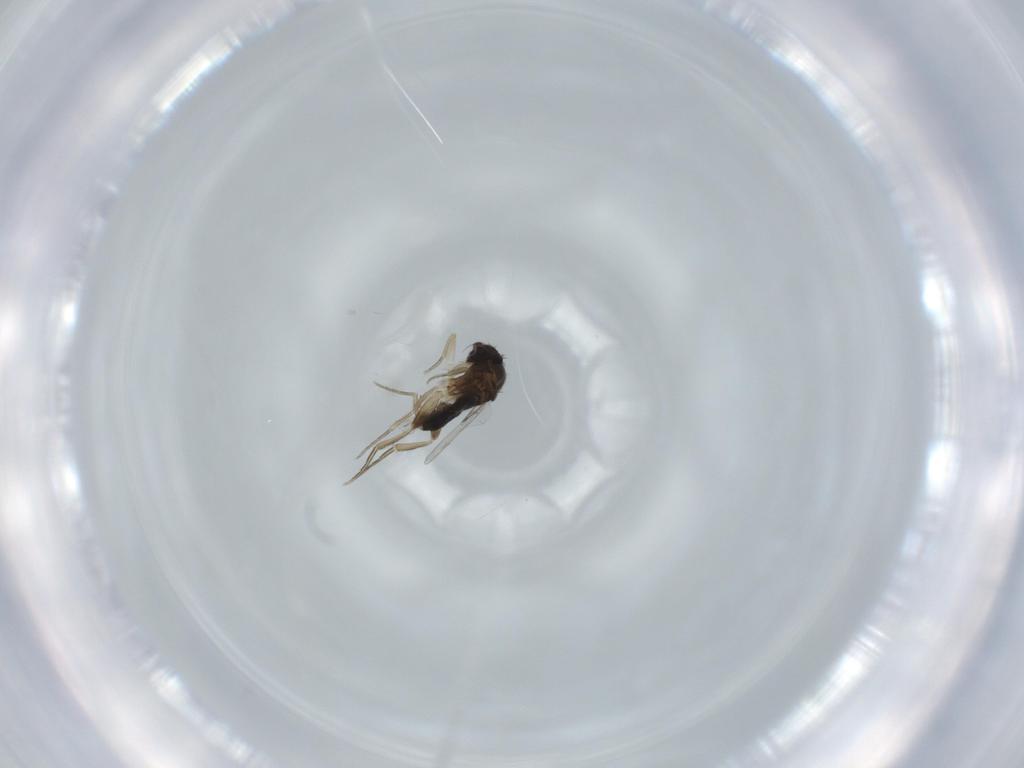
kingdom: Animalia
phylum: Arthropoda
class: Insecta
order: Diptera
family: Phoridae
